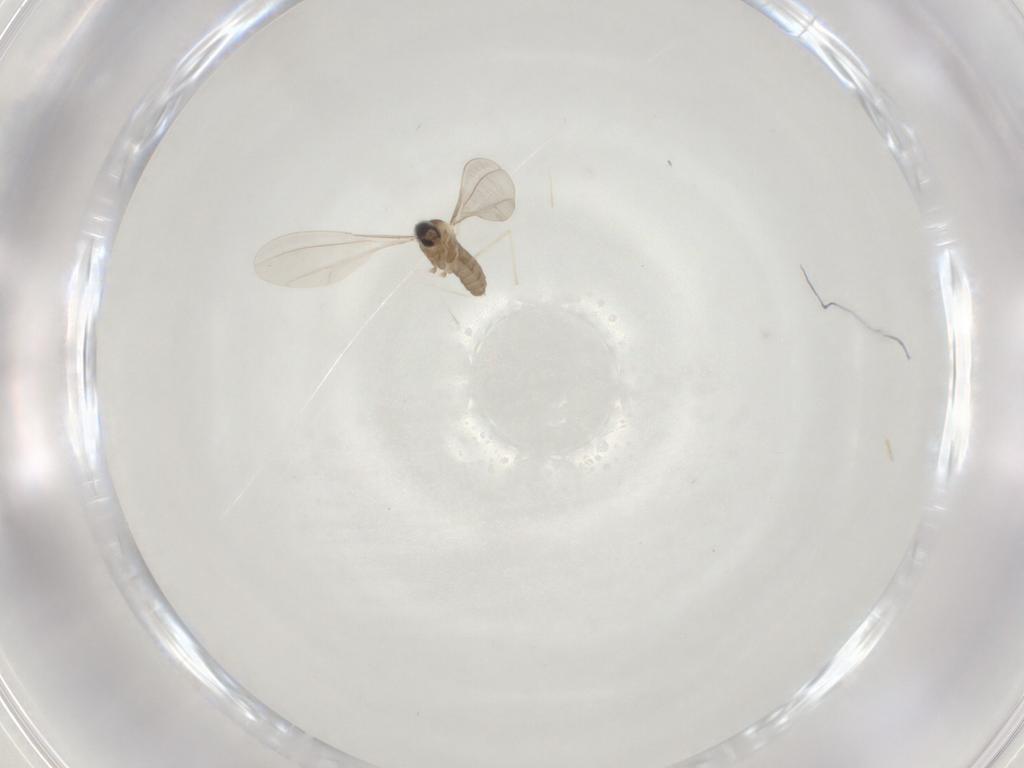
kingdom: Animalia
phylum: Arthropoda
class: Insecta
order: Diptera
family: Cecidomyiidae
